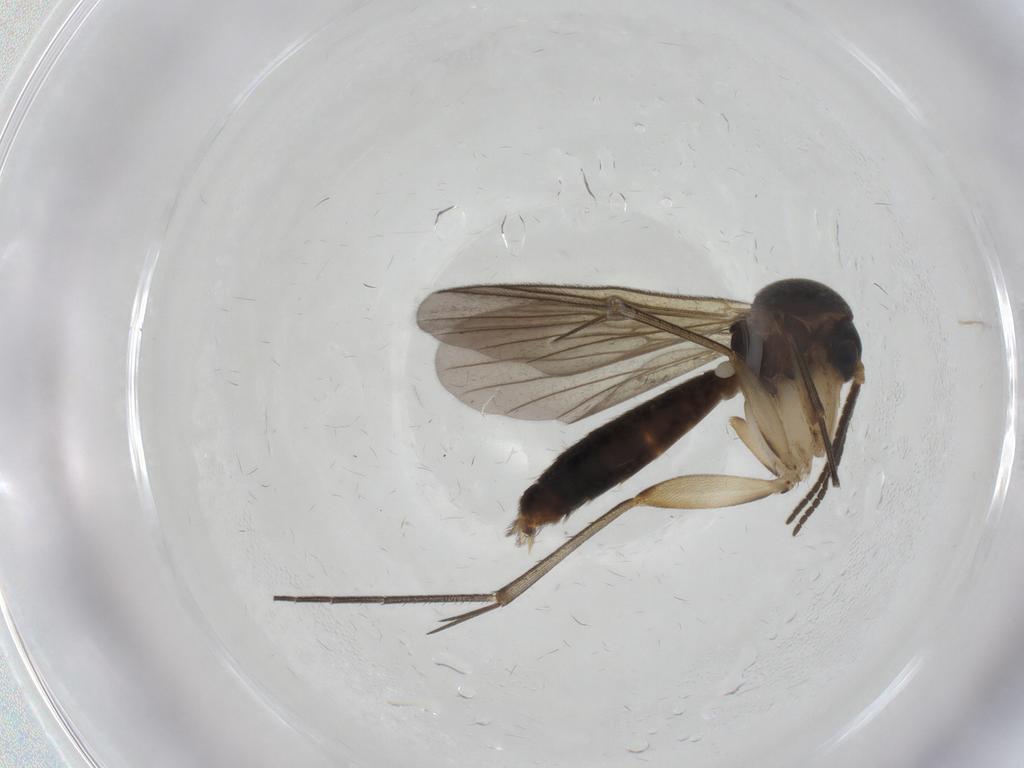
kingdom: Animalia
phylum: Arthropoda
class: Insecta
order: Diptera
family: Mycetophilidae
